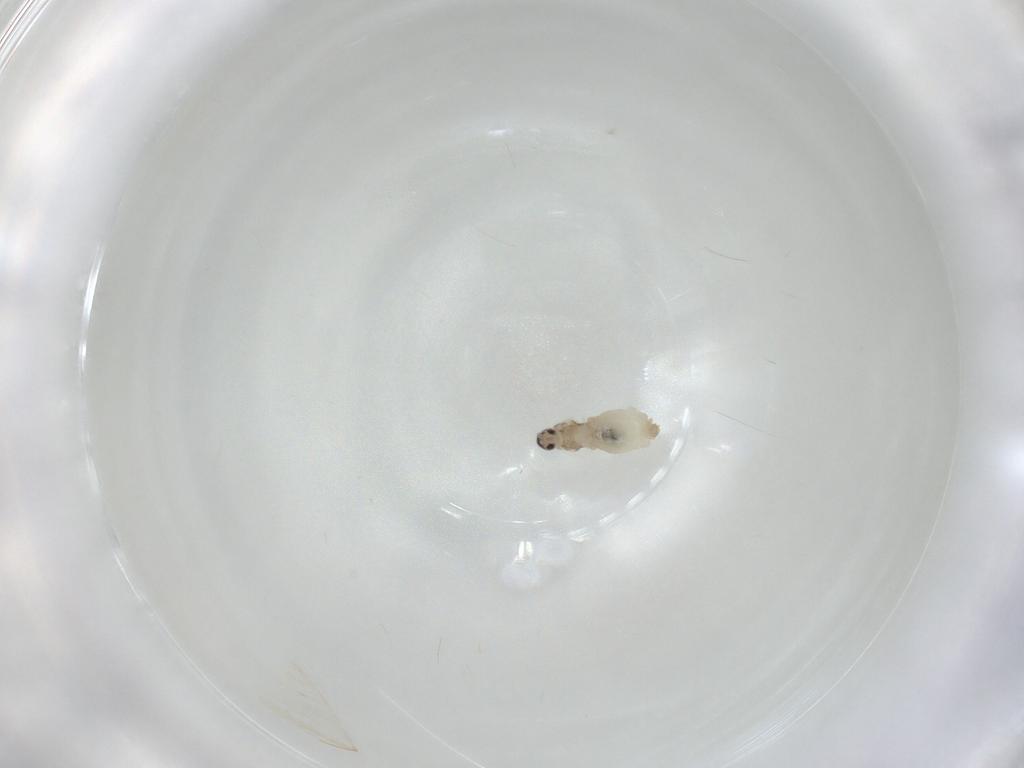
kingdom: Animalia
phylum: Arthropoda
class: Insecta
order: Diptera
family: Cecidomyiidae
